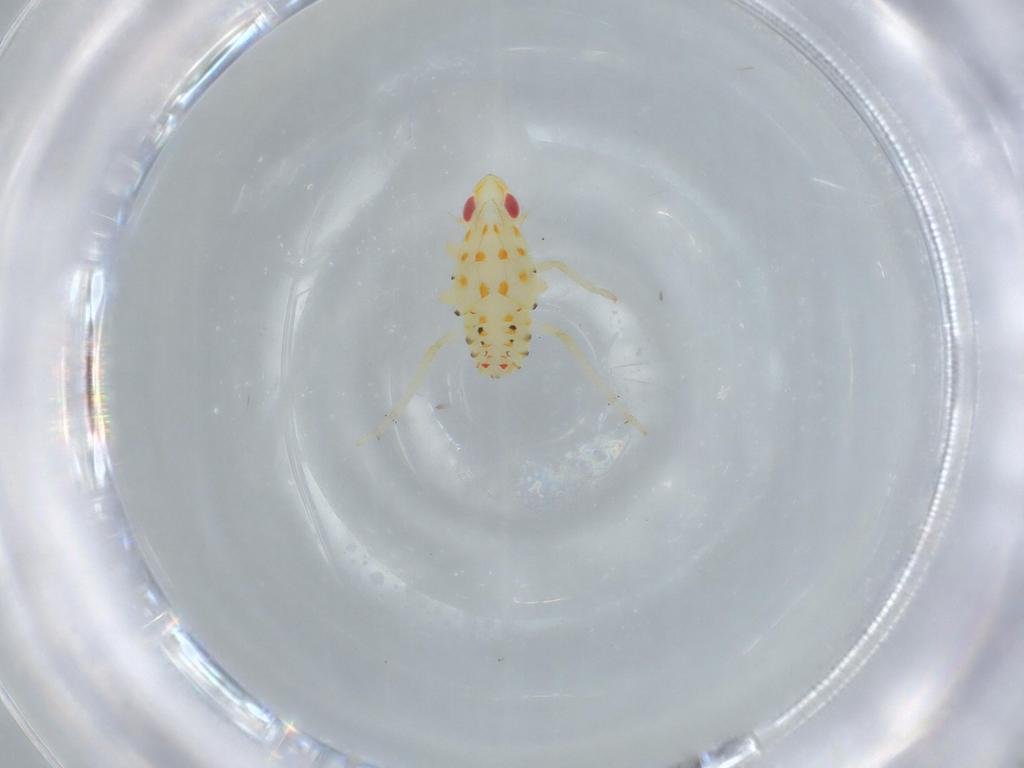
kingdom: Animalia
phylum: Arthropoda
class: Insecta
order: Hemiptera
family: Tropiduchidae
